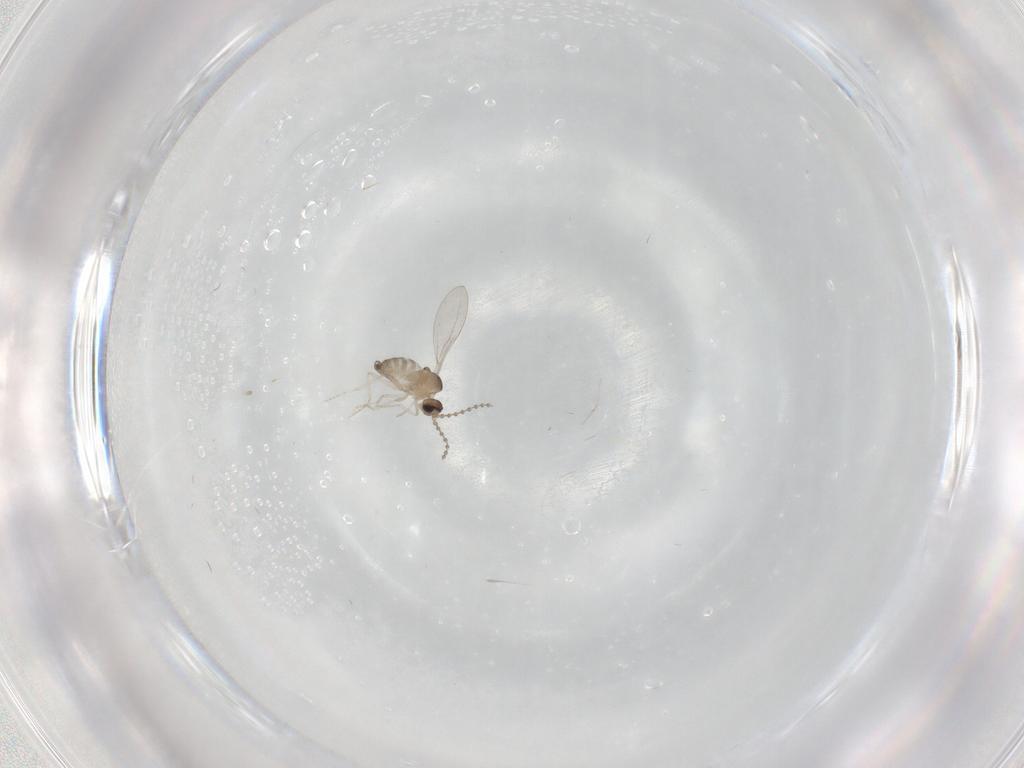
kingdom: Animalia
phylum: Arthropoda
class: Insecta
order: Diptera
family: Cecidomyiidae
